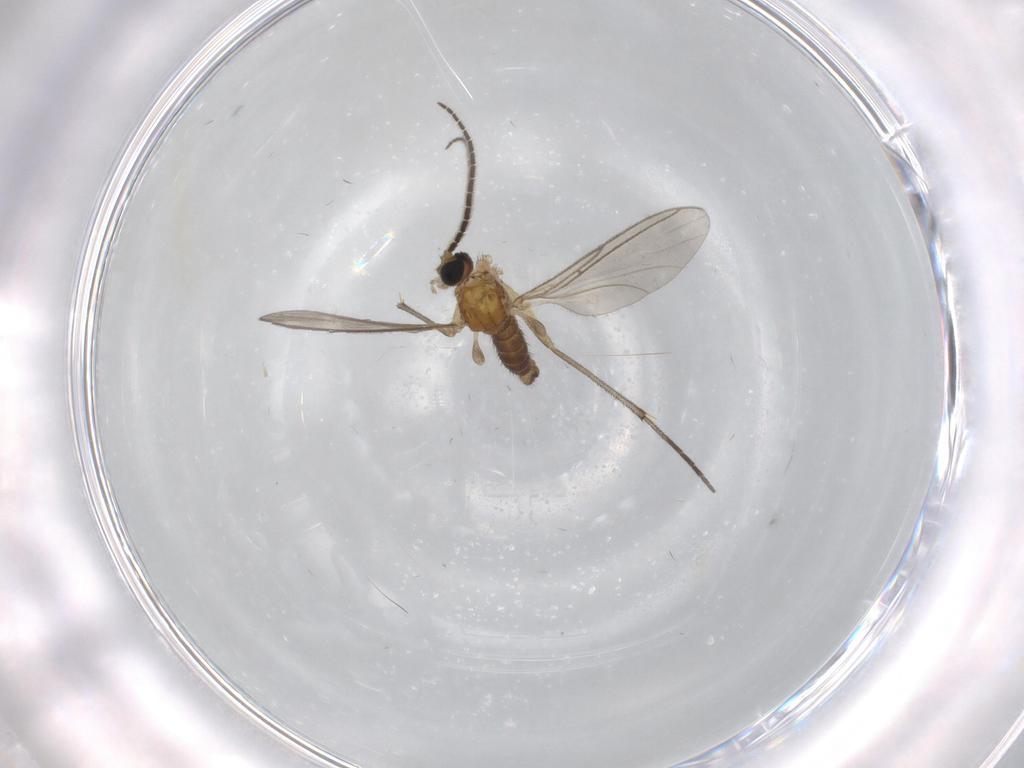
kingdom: Animalia
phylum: Arthropoda
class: Insecta
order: Diptera
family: Sciaridae
